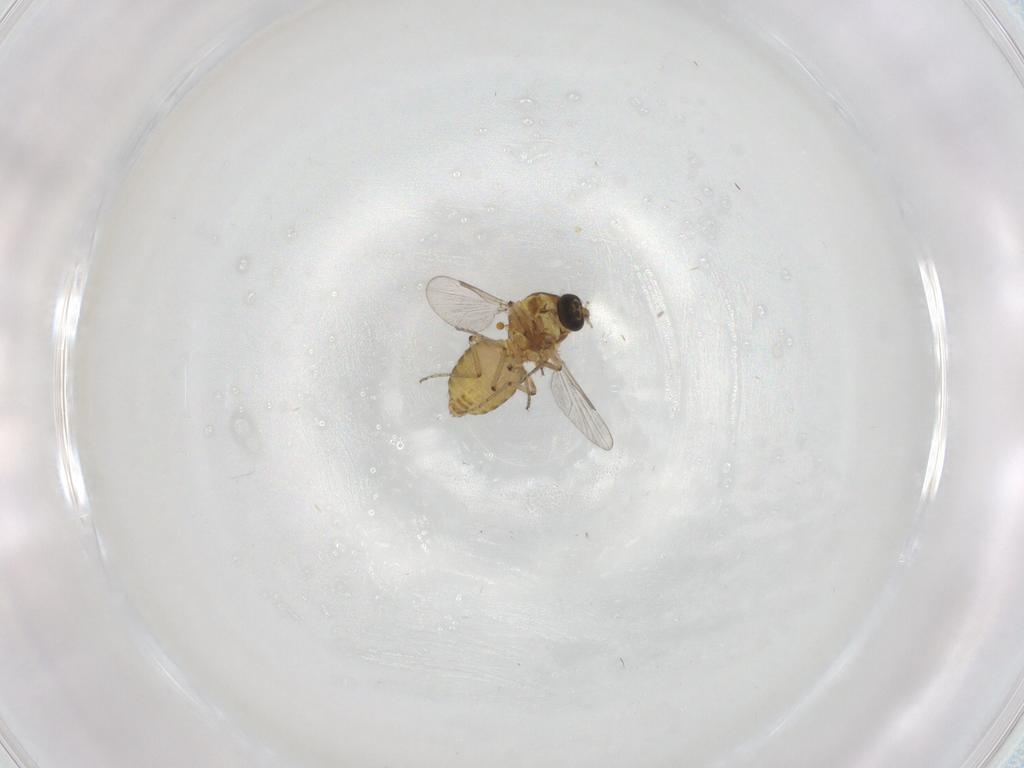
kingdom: Animalia
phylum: Arthropoda
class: Insecta
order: Diptera
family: Ceratopogonidae
